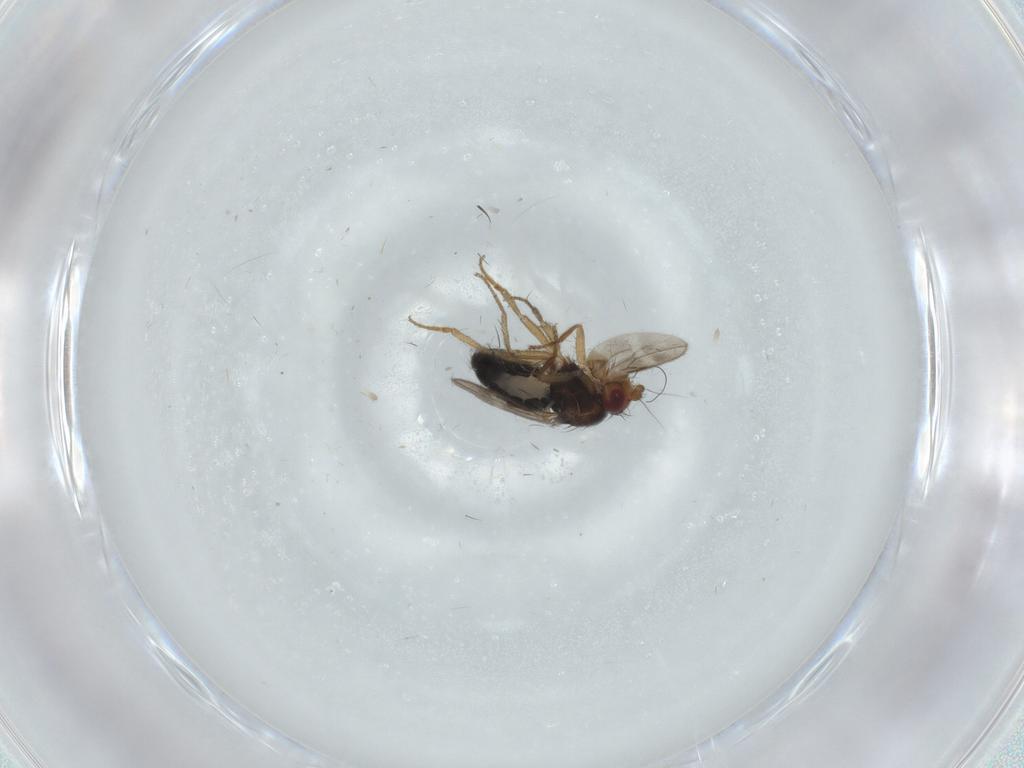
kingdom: Animalia
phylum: Arthropoda
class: Insecta
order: Diptera
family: Sphaeroceridae
